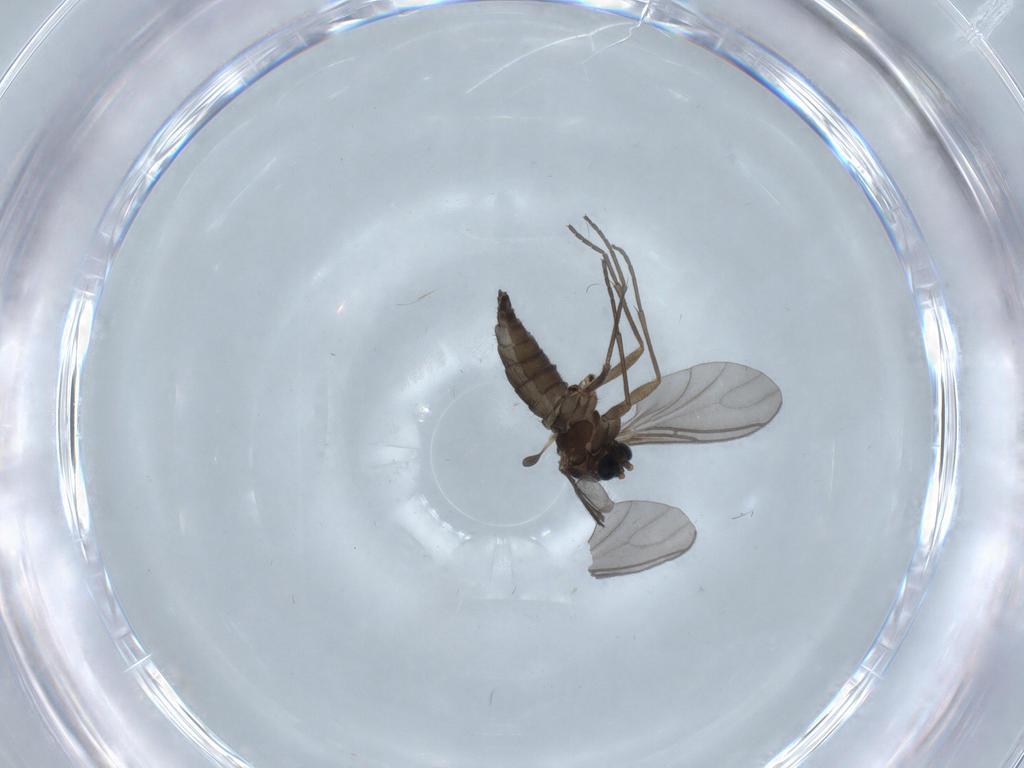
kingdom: Animalia
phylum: Arthropoda
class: Insecta
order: Diptera
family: Sciaridae
